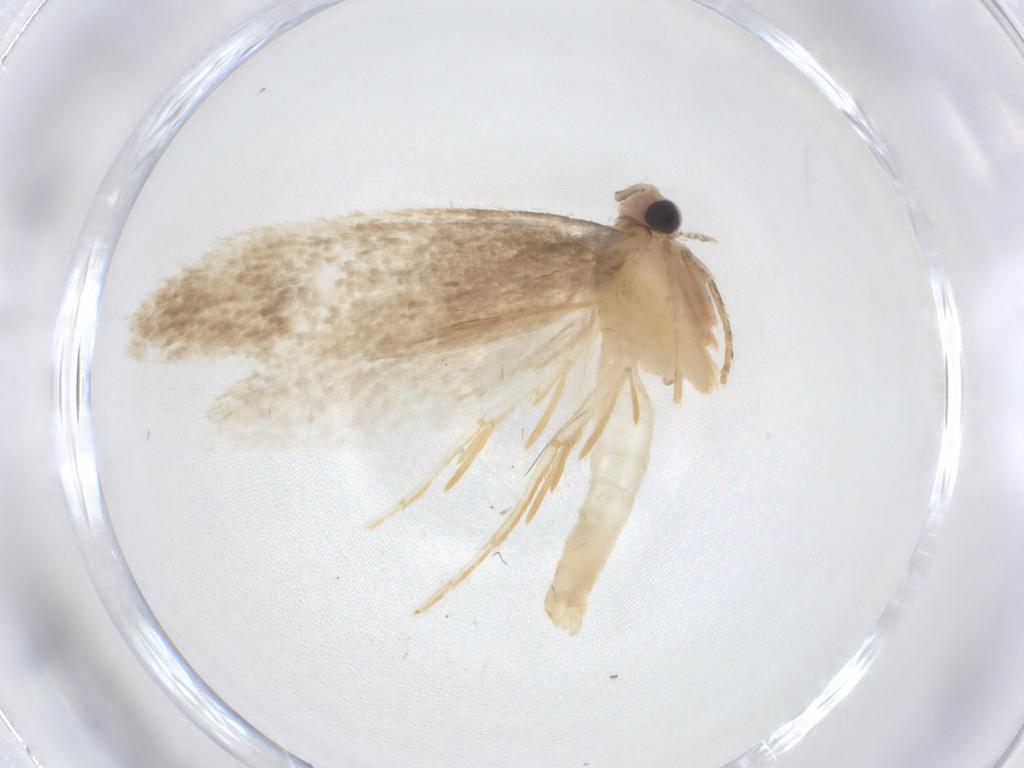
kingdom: Animalia
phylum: Arthropoda
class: Insecta
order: Lepidoptera
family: Tineidae
